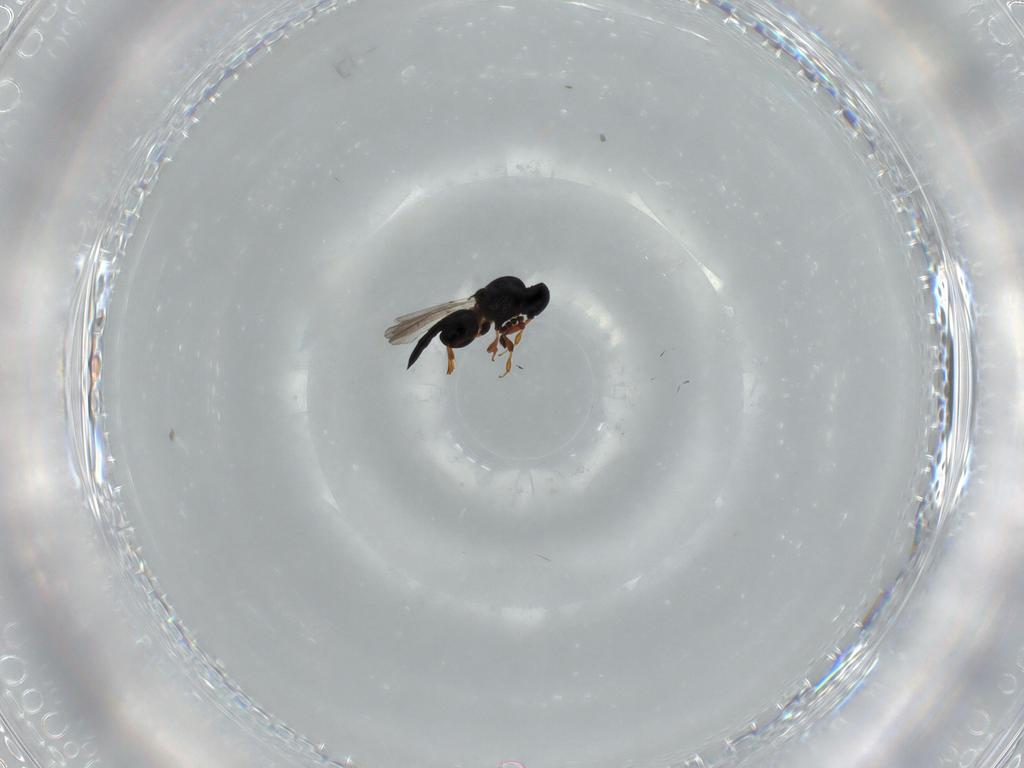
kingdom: Animalia
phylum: Arthropoda
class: Insecta
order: Hymenoptera
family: Platygastridae
